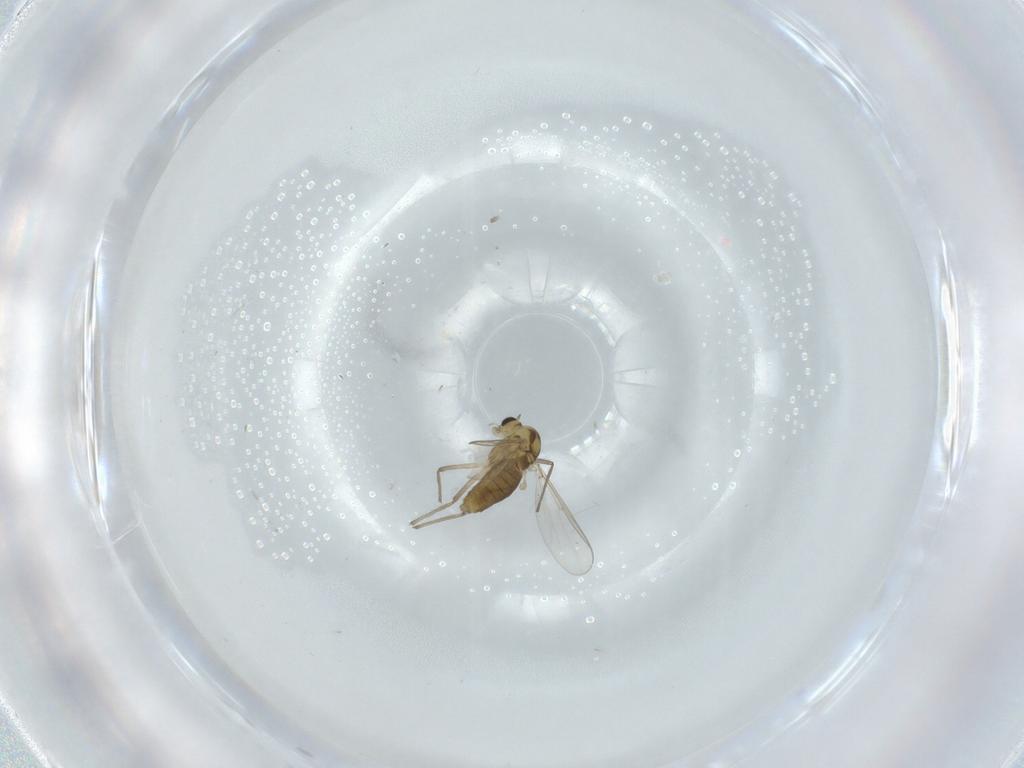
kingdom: Animalia
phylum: Arthropoda
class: Insecta
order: Diptera
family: Chironomidae
